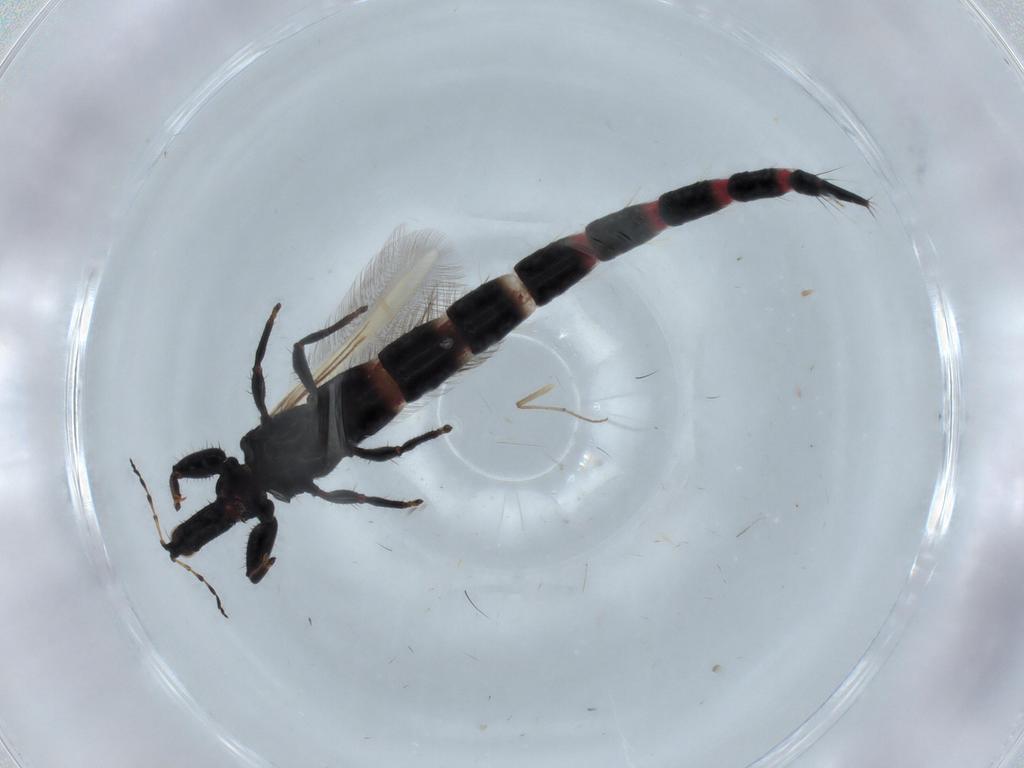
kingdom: Animalia
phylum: Arthropoda
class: Insecta
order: Thysanoptera
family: Phlaeothripidae
